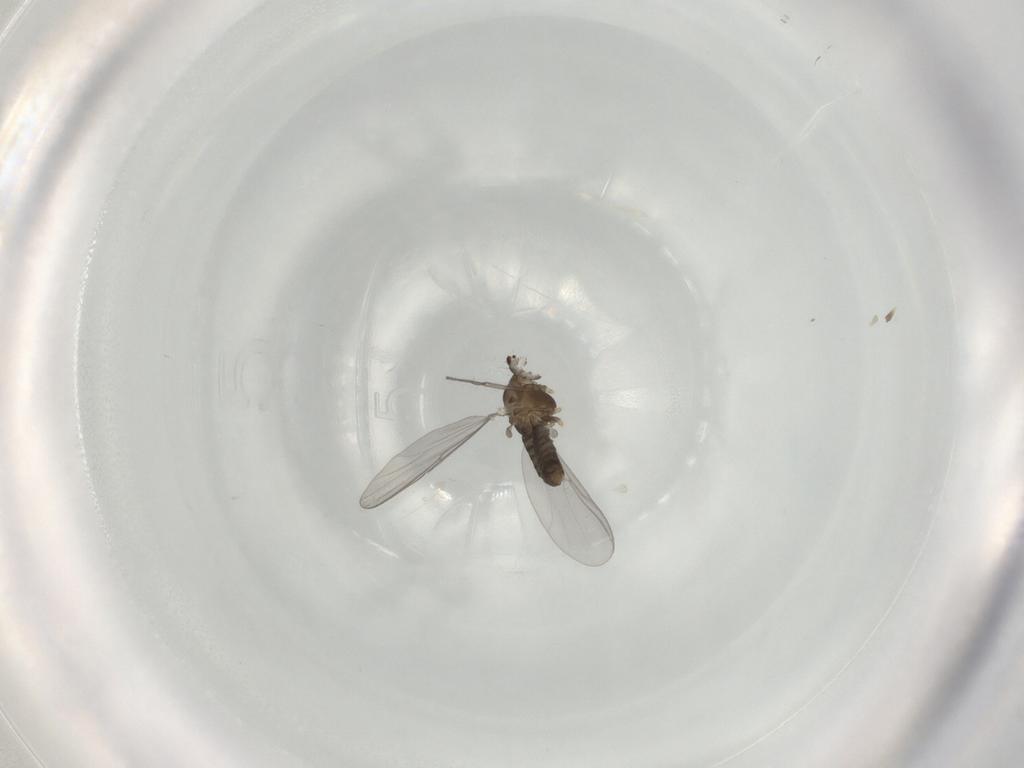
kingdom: Animalia
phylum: Arthropoda
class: Insecta
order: Diptera
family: Chironomidae
